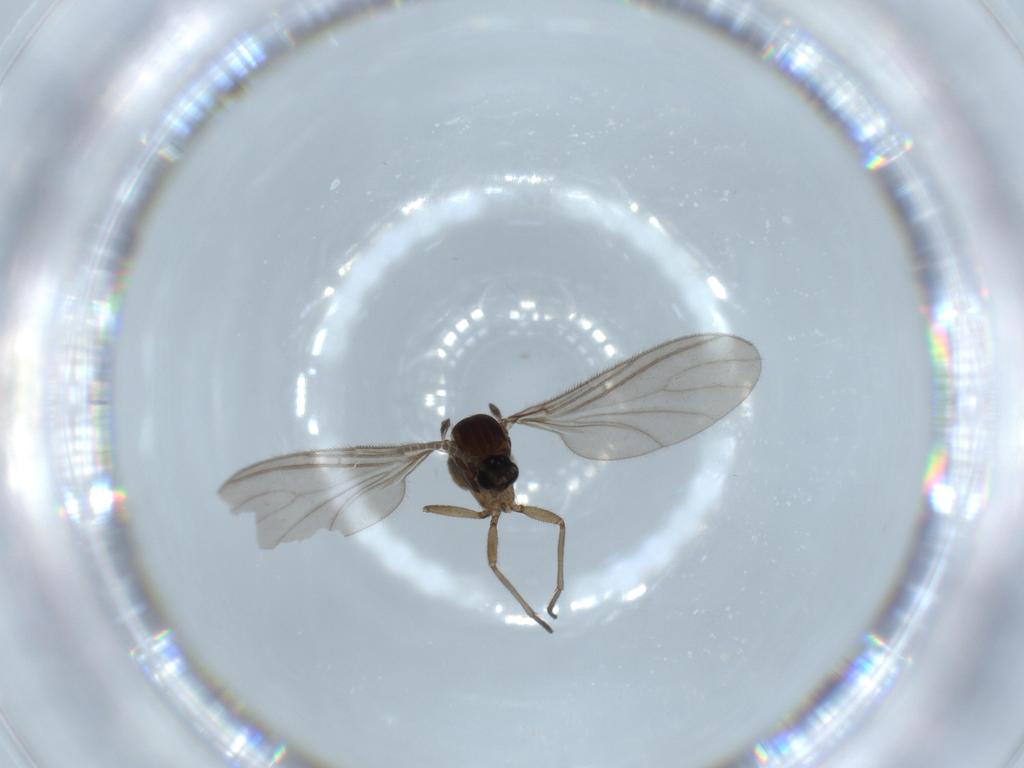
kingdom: Animalia
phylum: Arthropoda
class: Insecta
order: Diptera
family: Sciaridae
